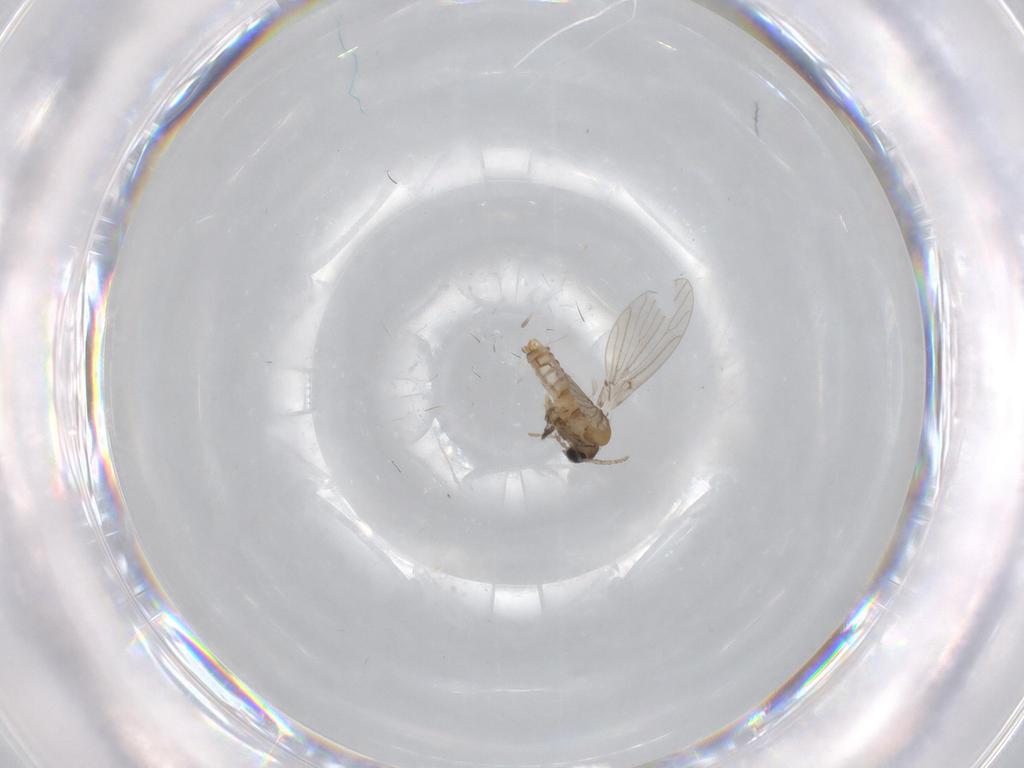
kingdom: Animalia
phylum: Arthropoda
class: Insecta
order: Diptera
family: Psychodidae
